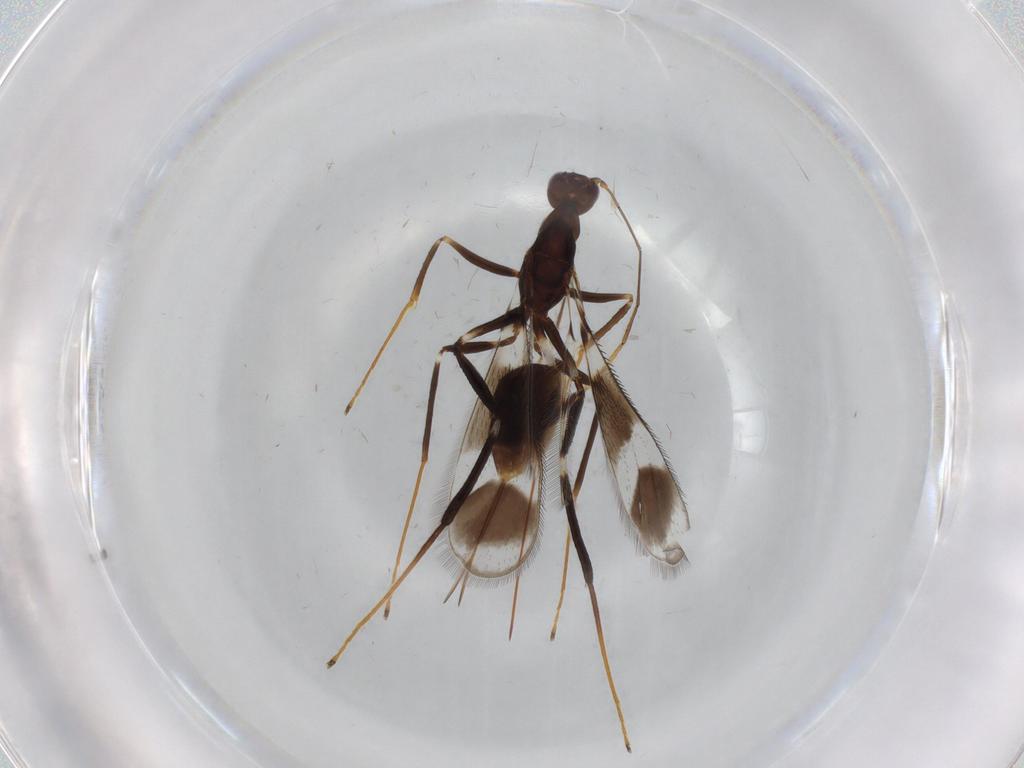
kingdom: Animalia
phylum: Arthropoda
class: Insecta
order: Hymenoptera
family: Mymaridae
